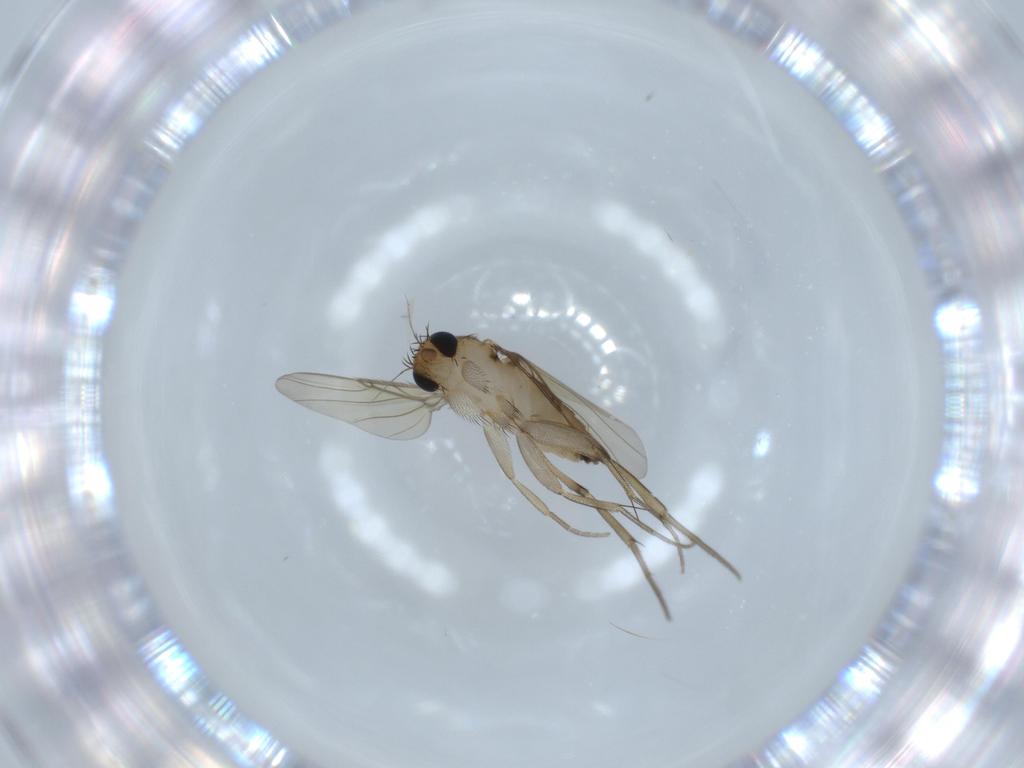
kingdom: Animalia
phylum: Arthropoda
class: Insecta
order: Diptera
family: Phoridae
